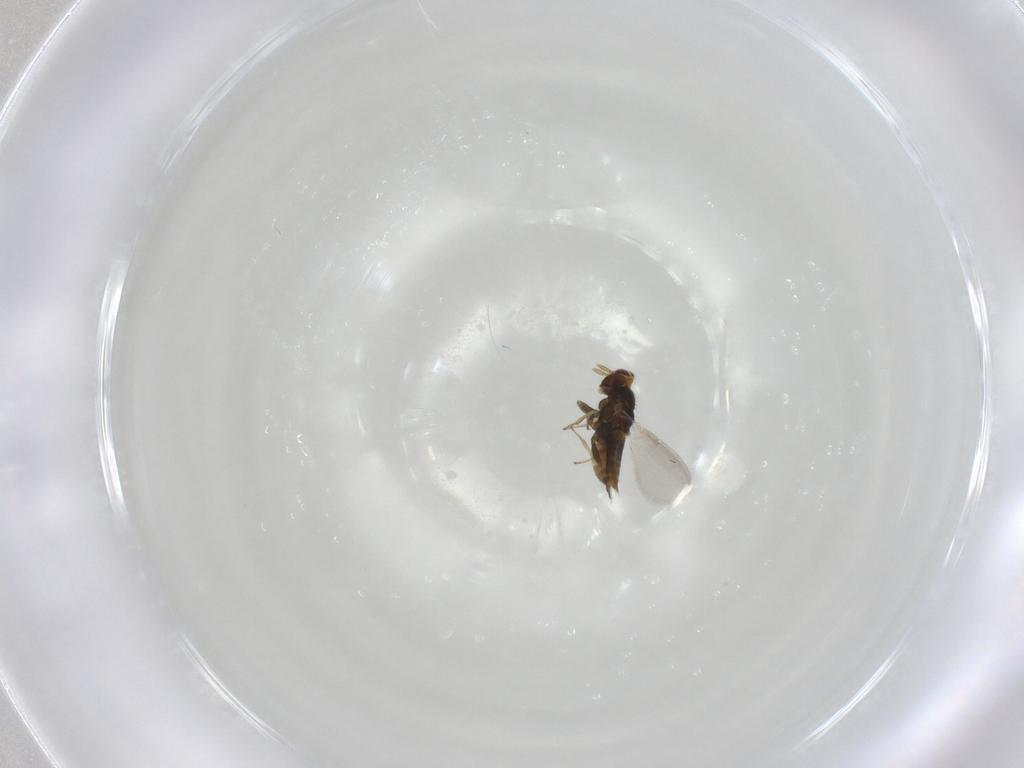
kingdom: Animalia
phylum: Arthropoda
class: Insecta
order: Hymenoptera
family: Aphelinidae
